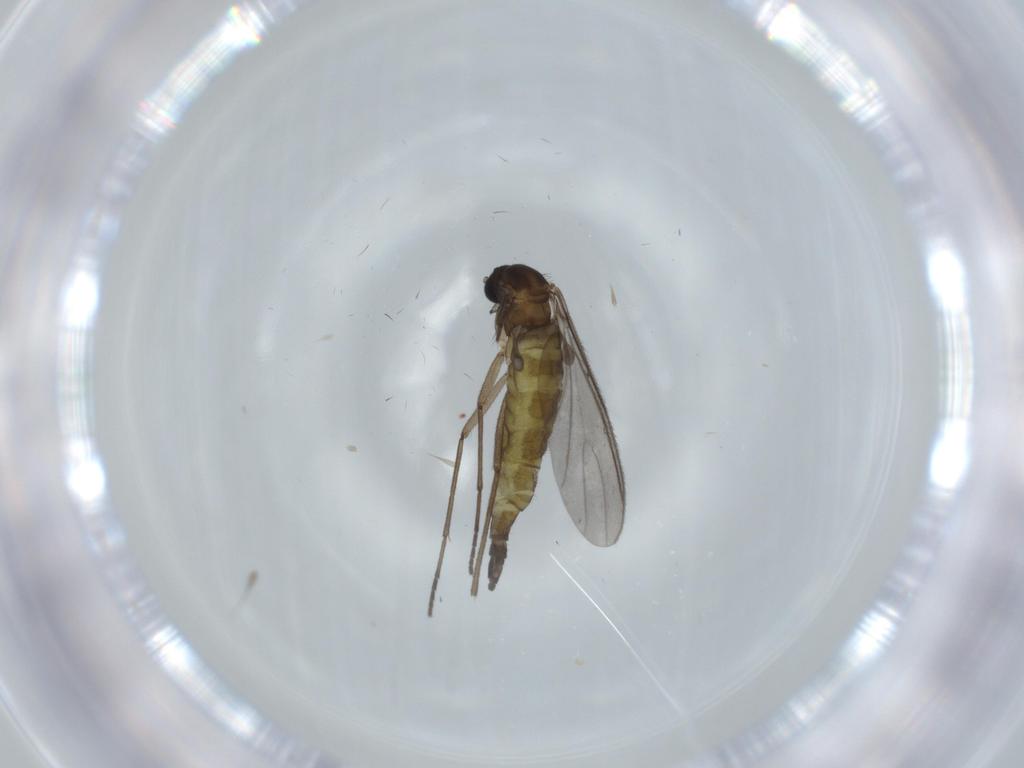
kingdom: Animalia
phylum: Arthropoda
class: Insecta
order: Diptera
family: Sciaridae
